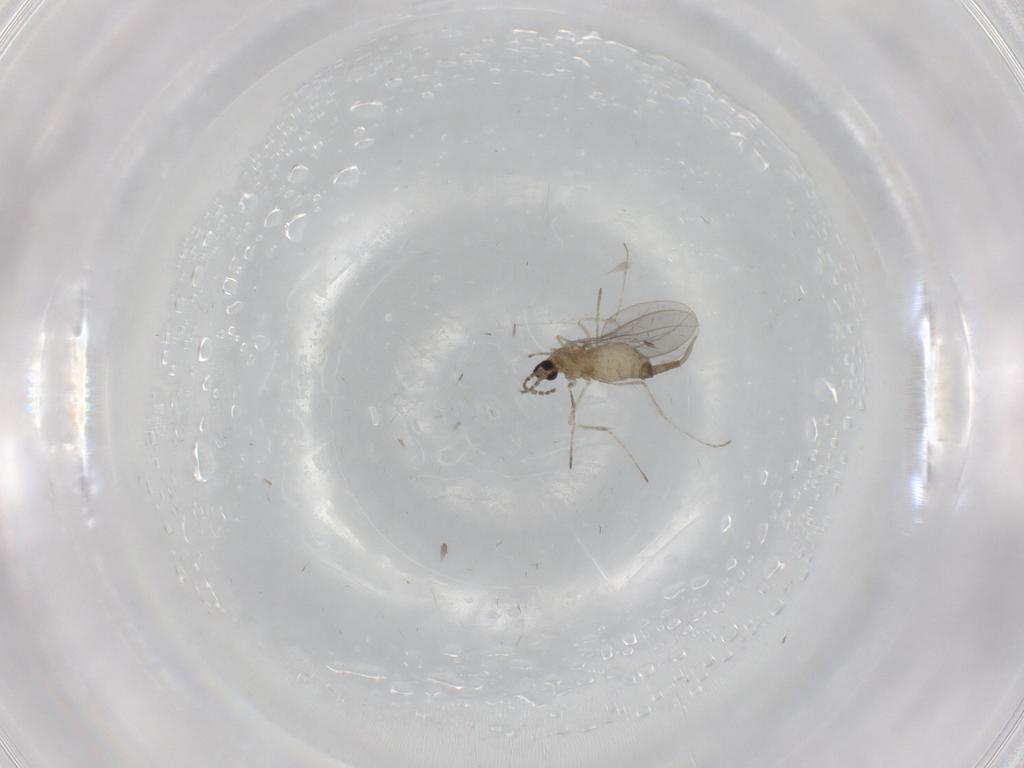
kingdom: Animalia
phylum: Arthropoda
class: Insecta
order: Diptera
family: Cecidomyiidae
